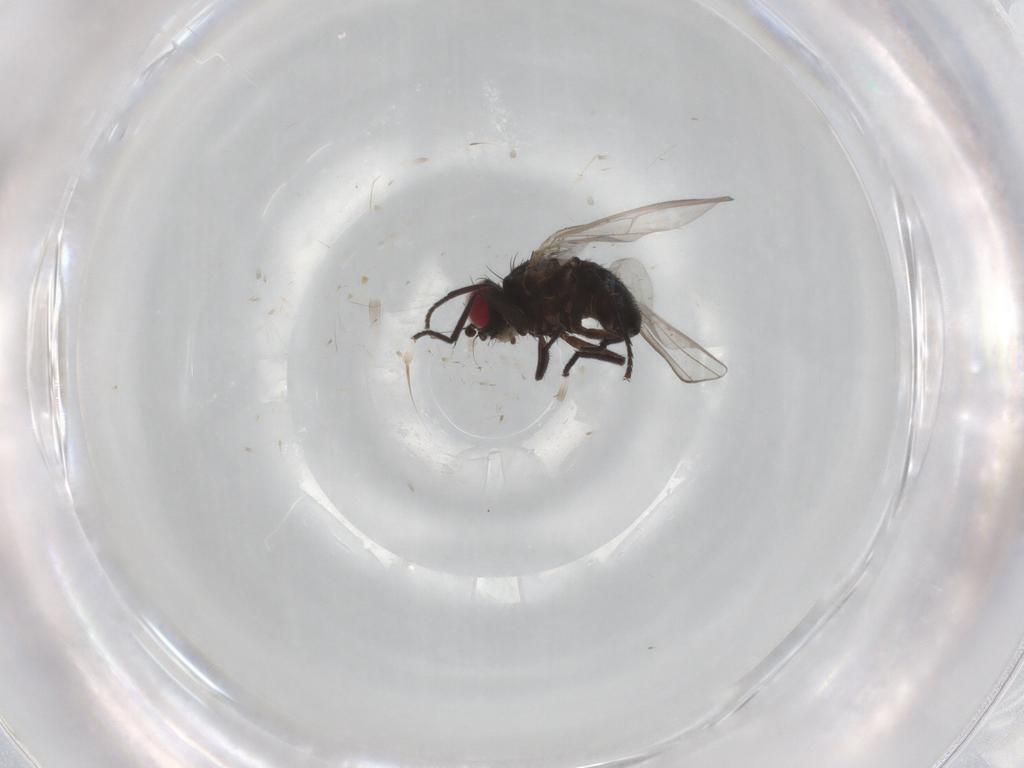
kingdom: Animalia
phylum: Arthropoda
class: Insecta
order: Diptera
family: Agromyzidae
